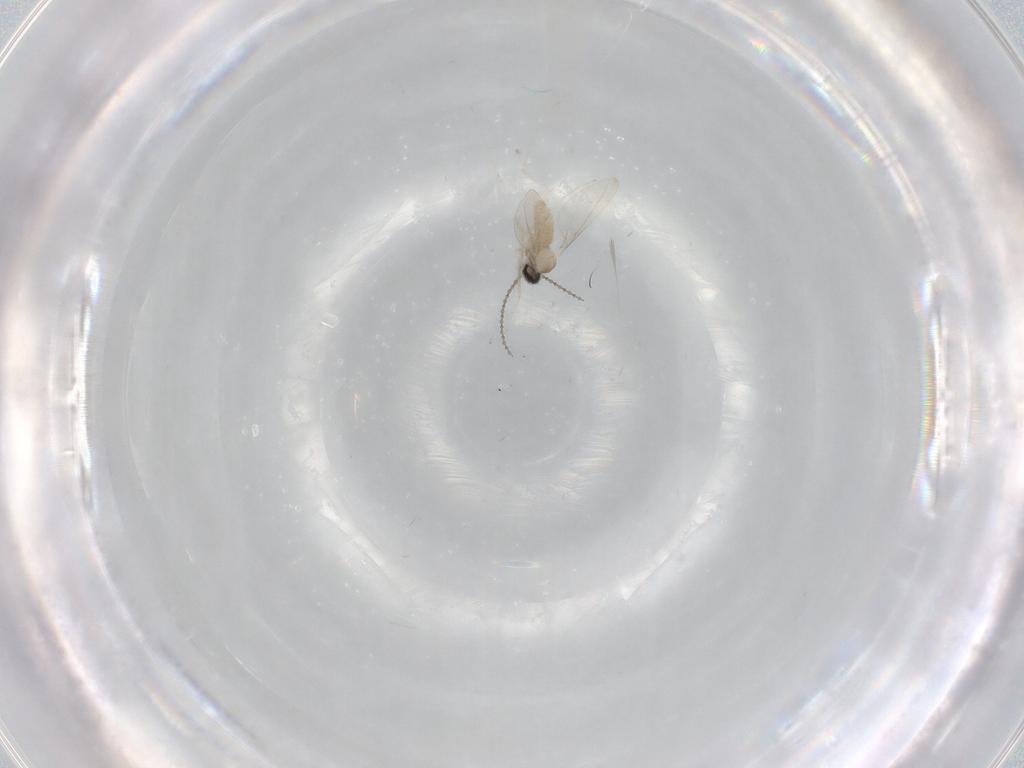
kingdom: Animalia
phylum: Arthropoda
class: Insecta
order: Diptera
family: Cecidomyiidae
